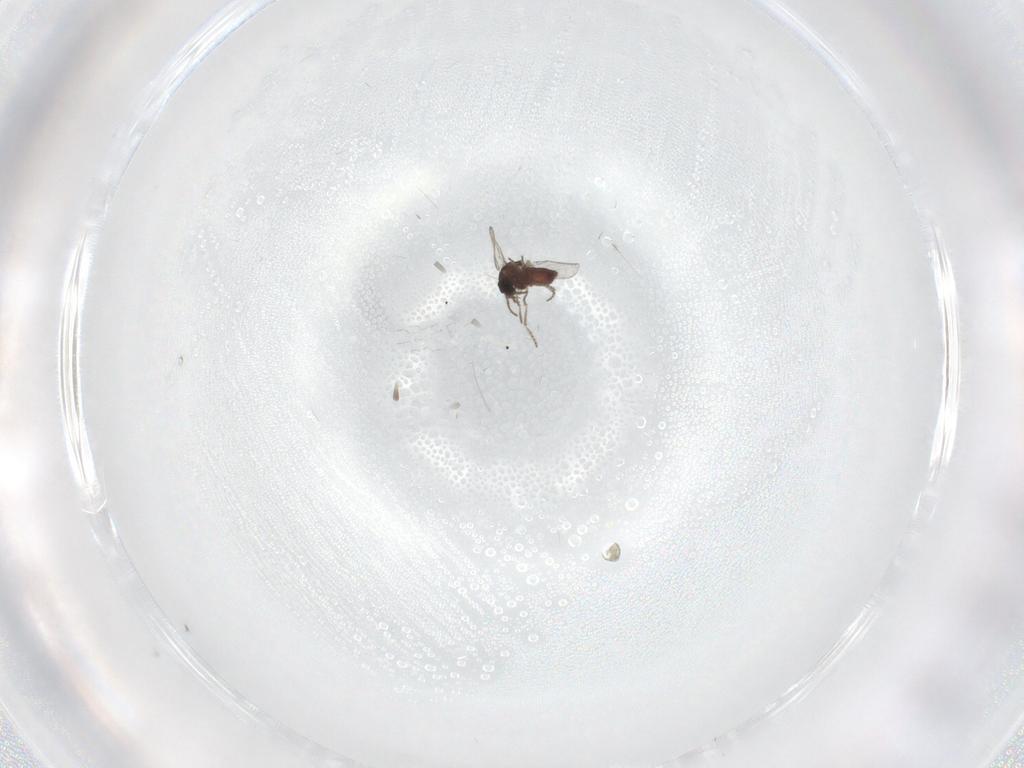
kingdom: Animalia
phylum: Arthropoda
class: Insecta
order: Diptera
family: Ceratopogonidae
